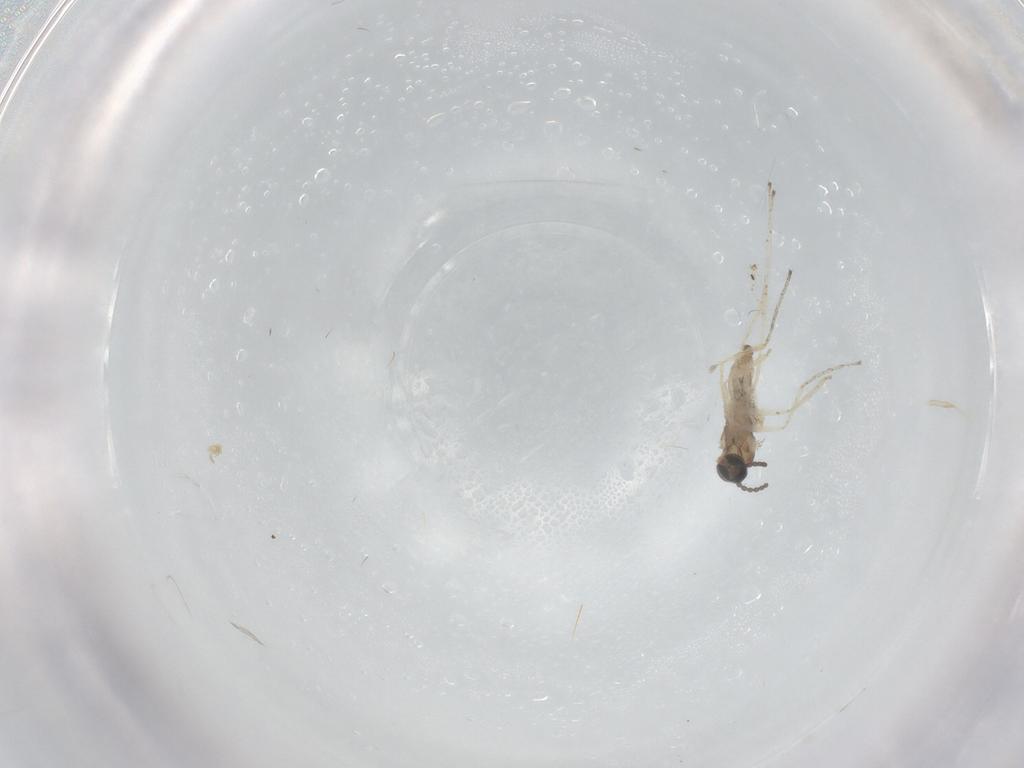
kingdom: Animalia
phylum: Arthropoda
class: Insecta
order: Diptera
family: Cecidomyiidae
